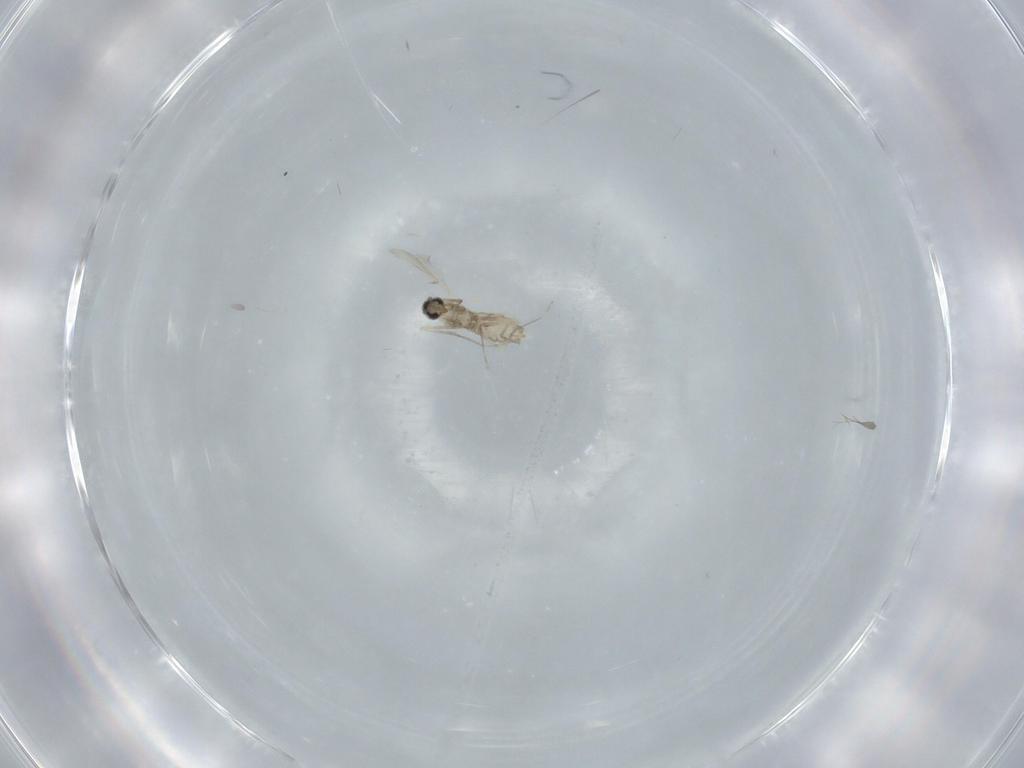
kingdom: Animalia
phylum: Arthropoda
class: Insecta
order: Diptera
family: Cecidomyiidae
